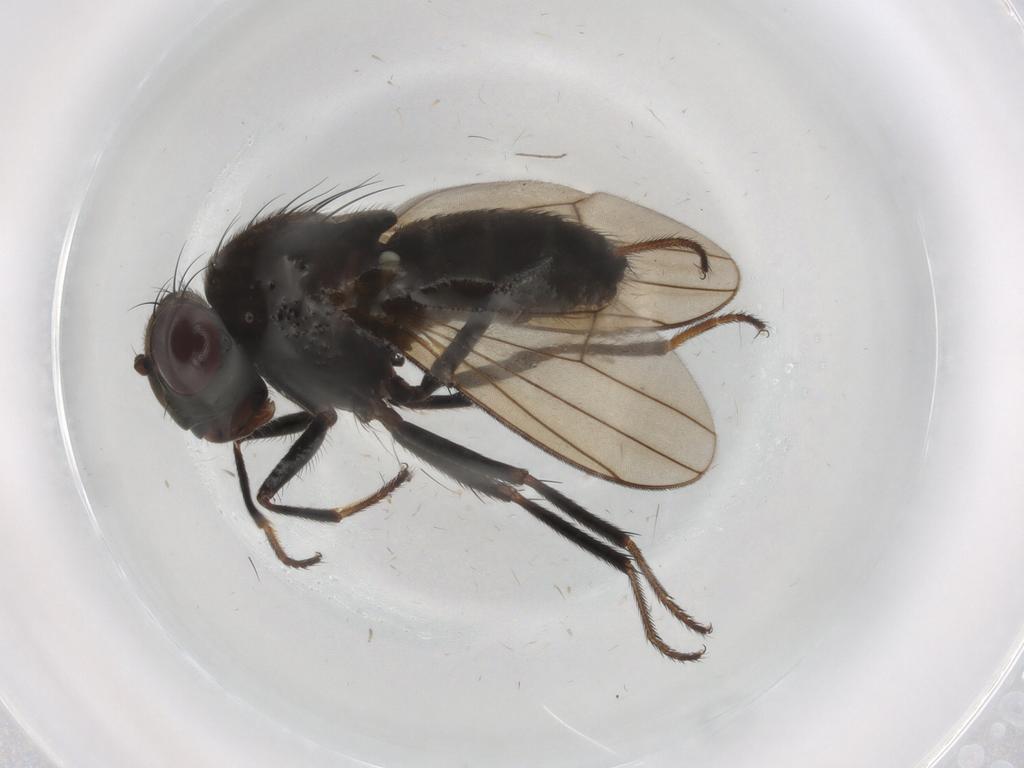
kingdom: Animalia
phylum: Arthropoda
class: Insecta
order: Diptera
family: Ephydridae
